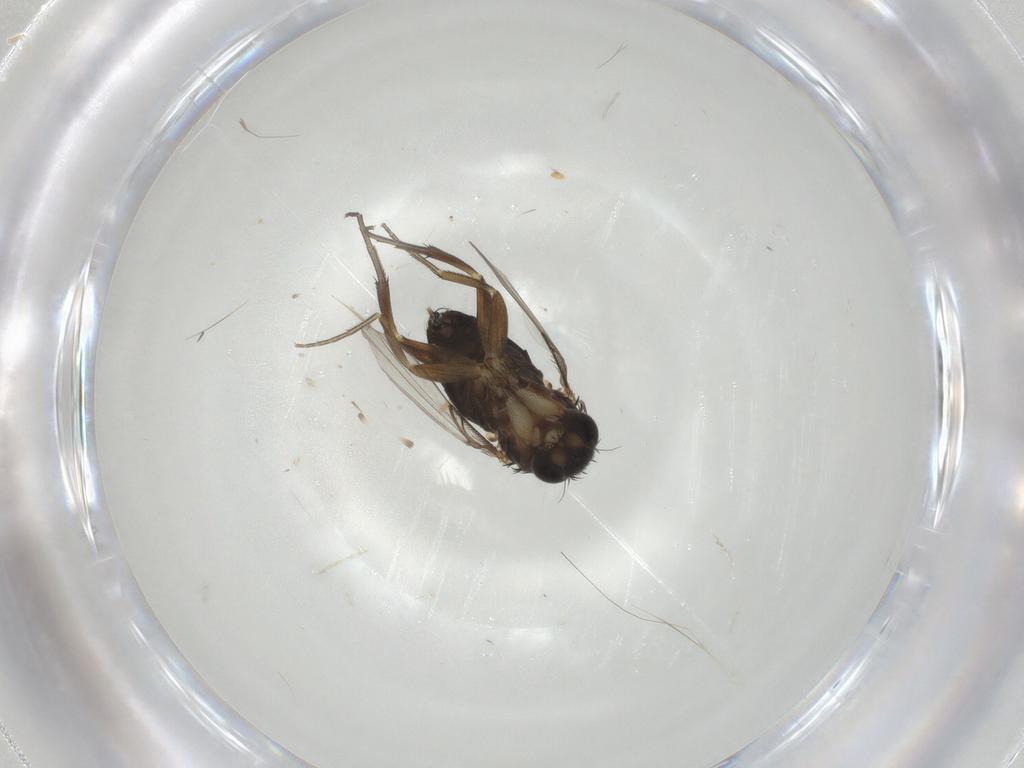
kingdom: Animalia
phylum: Arthropoda
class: Insecta
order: Diptera
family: Phoridae
